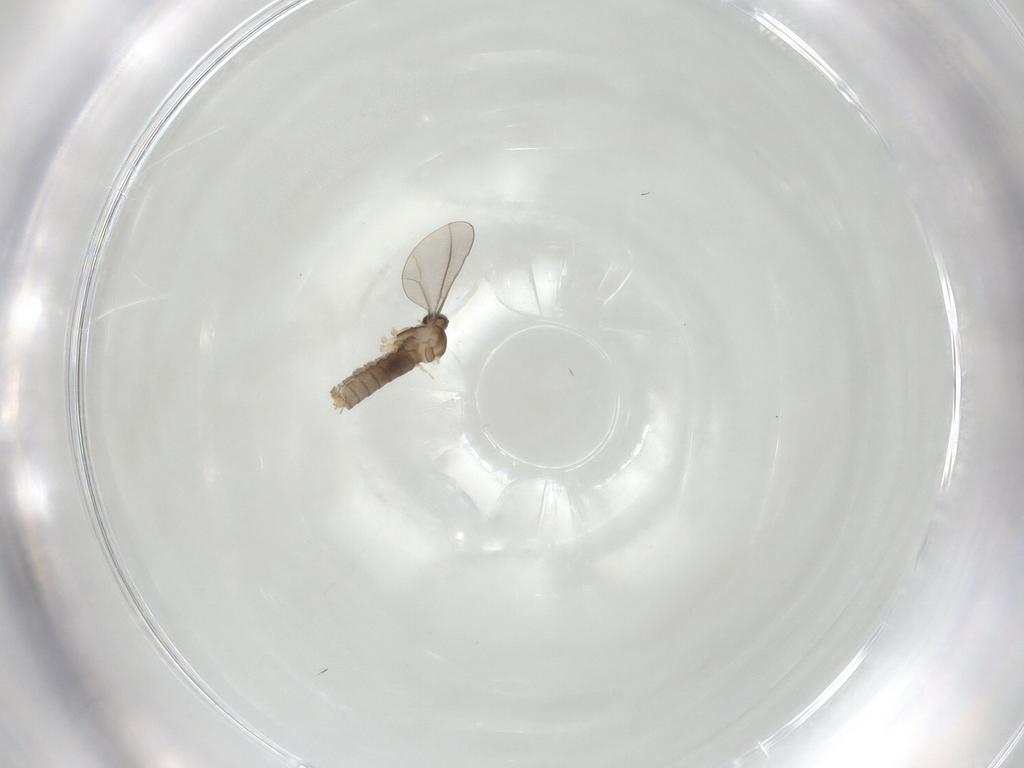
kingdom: Animalia
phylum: Arthropoda
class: Insecta
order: Diptera
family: Cecidomyiidae
